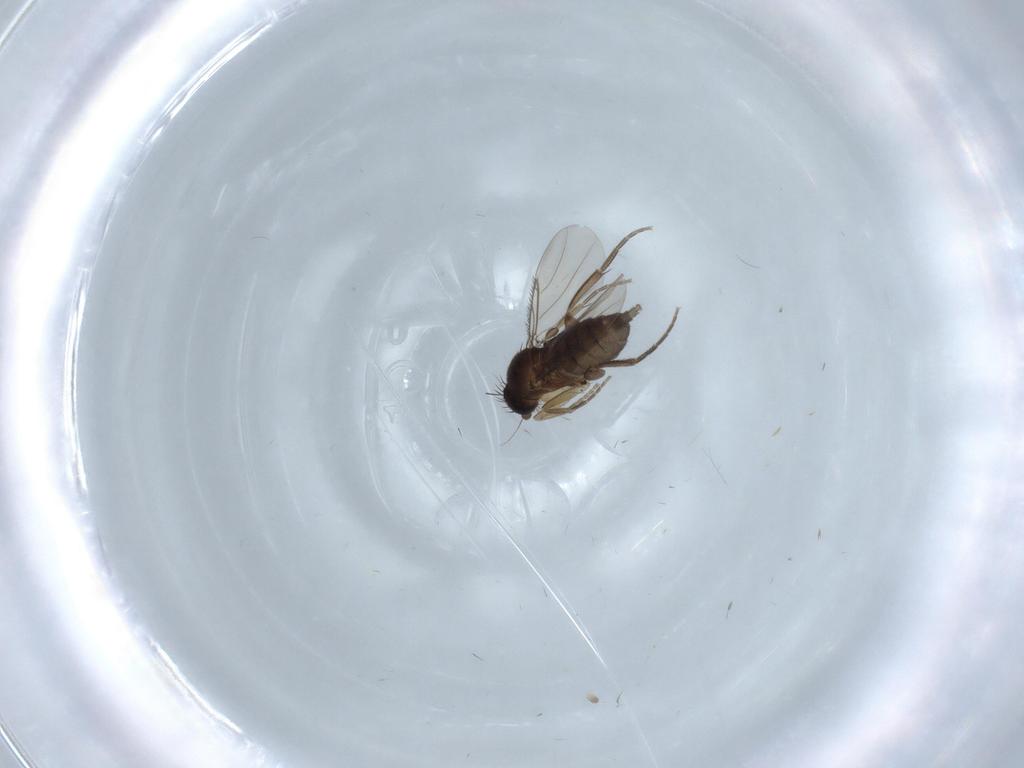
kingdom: Animalia
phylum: Arthropoda
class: Insecta
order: Diptera
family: Phoridae
